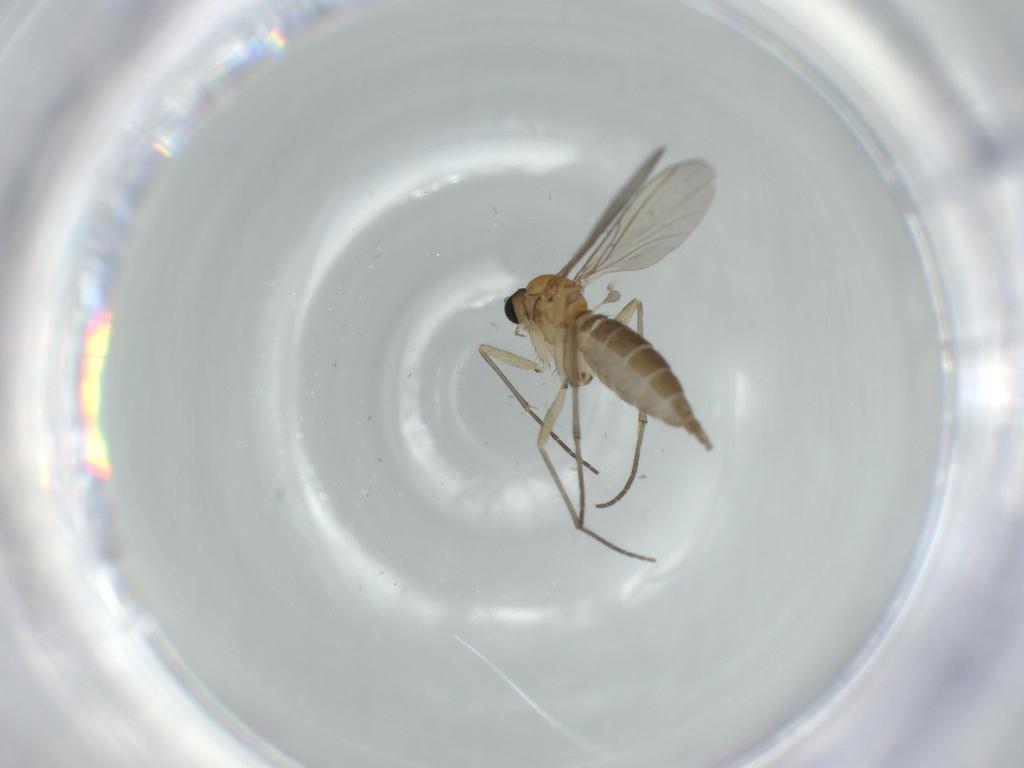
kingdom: Animalia
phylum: Arthropoda
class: Insecta
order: Diptera
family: Sciaridae
